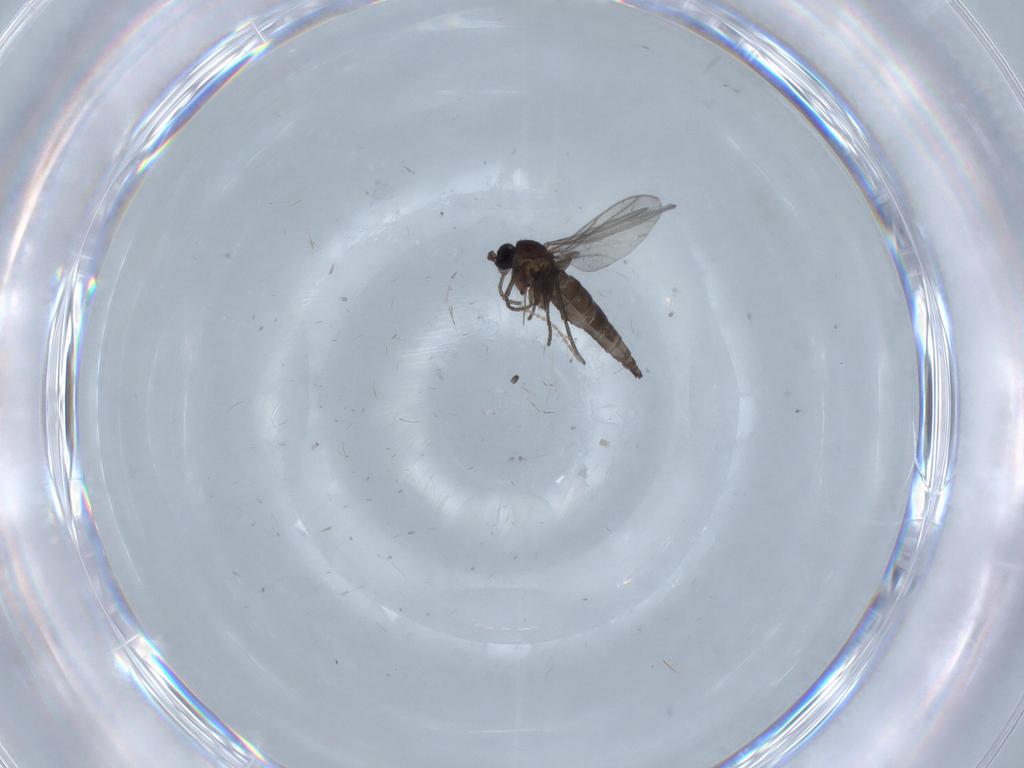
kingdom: Animalia
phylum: Arthropoda
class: Insecta
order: Diptera
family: Ceratopogonidae
